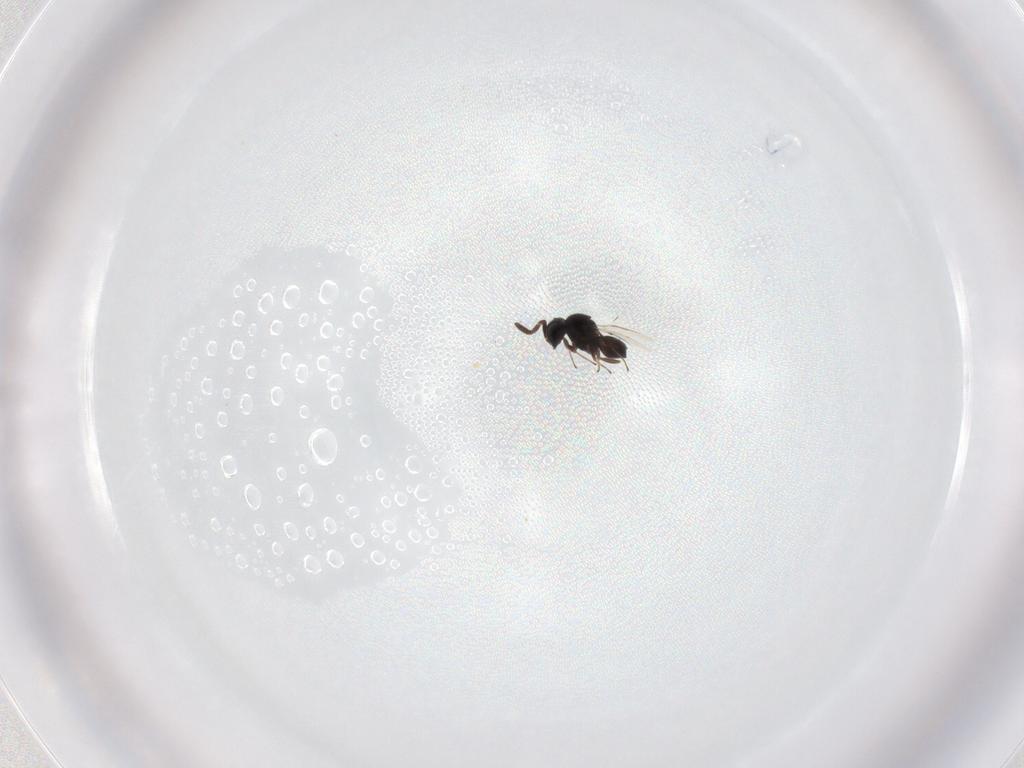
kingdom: Animalia
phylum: Arthropoda
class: Insecta
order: Hymenoptera
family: Scelionidae
